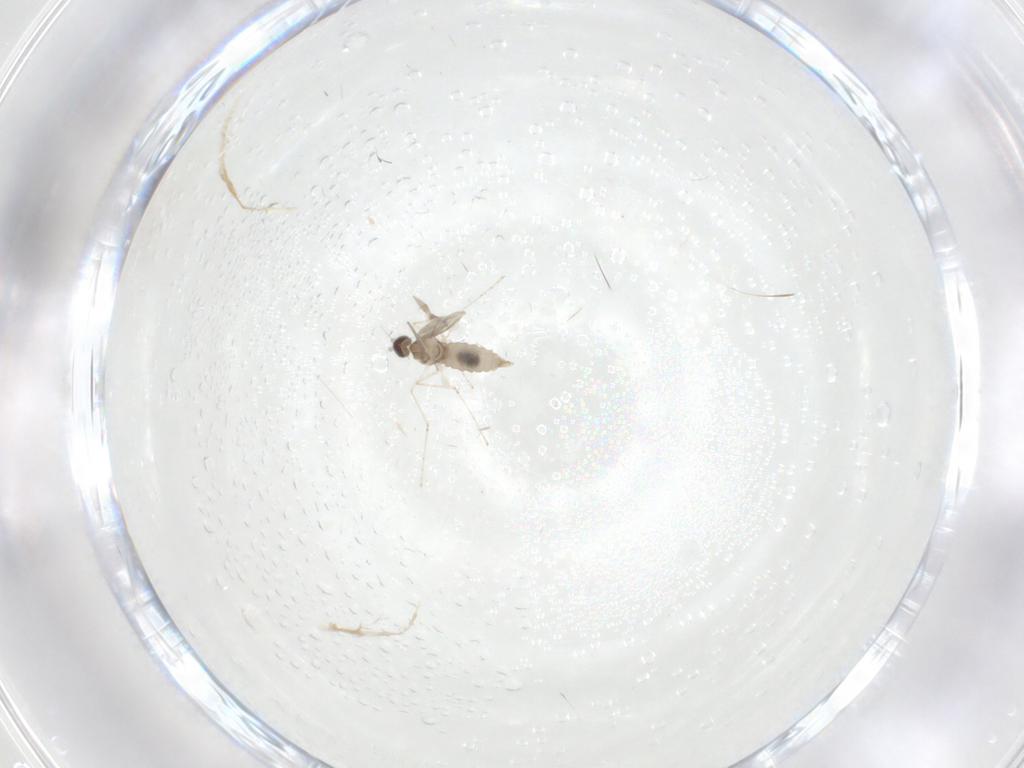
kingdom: Animalia
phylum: Arthropoda
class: Insecta
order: Diptera
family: Cecidomyiidae
